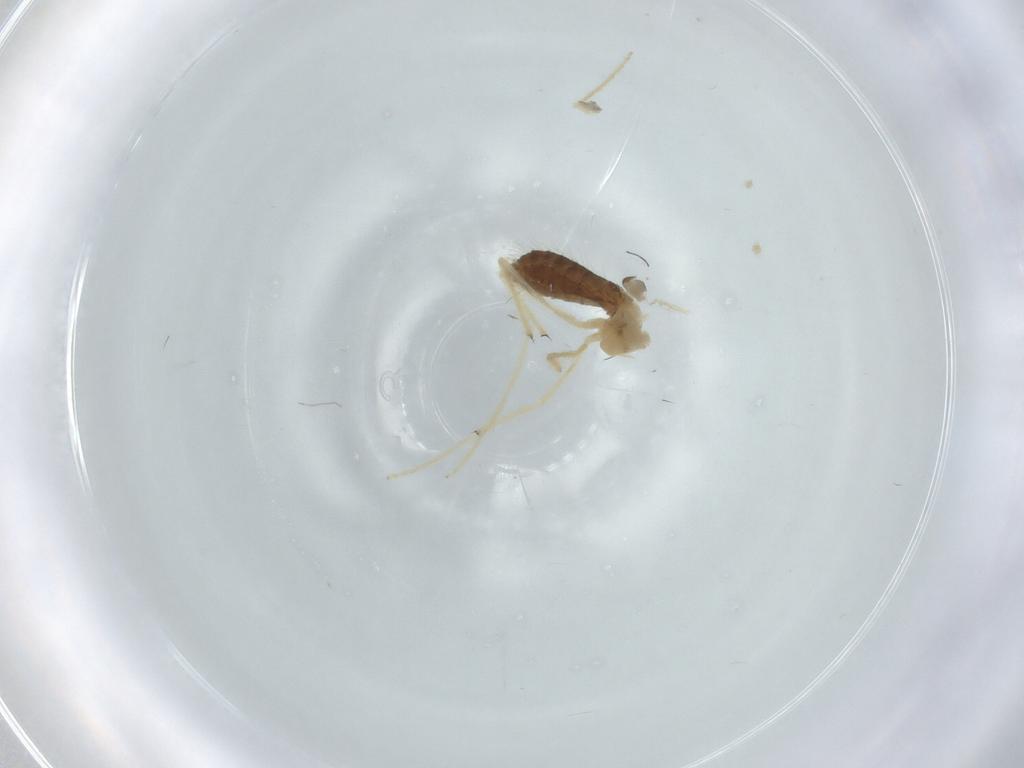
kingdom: Animalia
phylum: Arthropoda
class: Insecta
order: Diptera
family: Chironomidae
